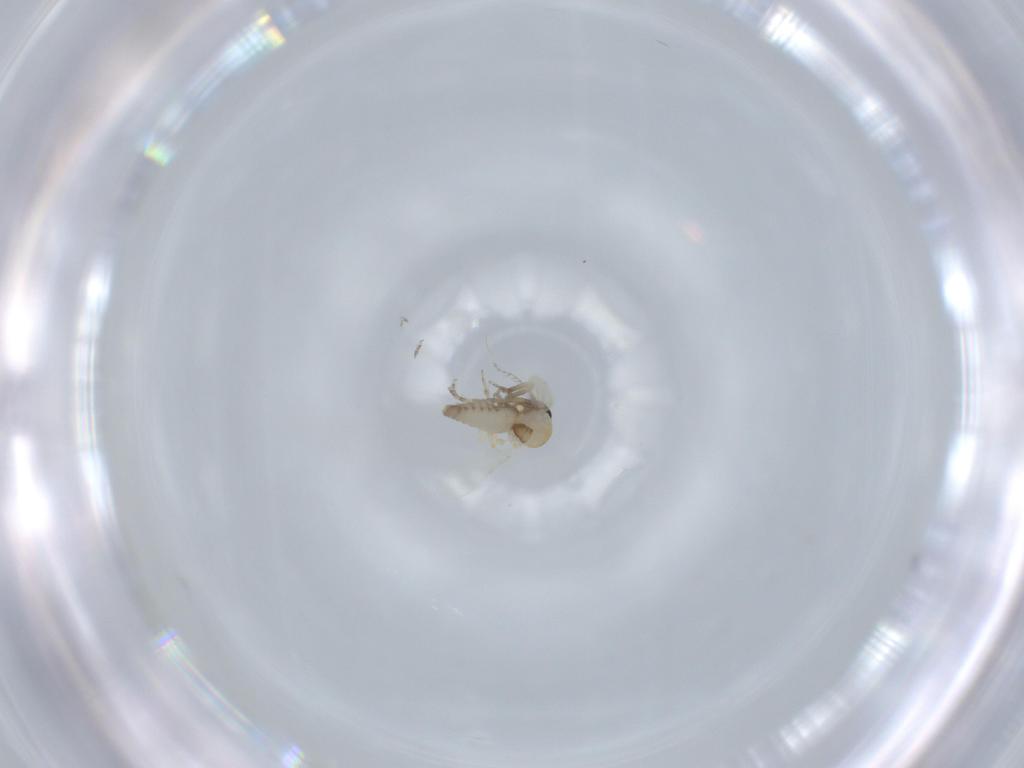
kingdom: Animalia
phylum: Arthropoda
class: Insecta
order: Diptera
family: Ceratopogonidae
